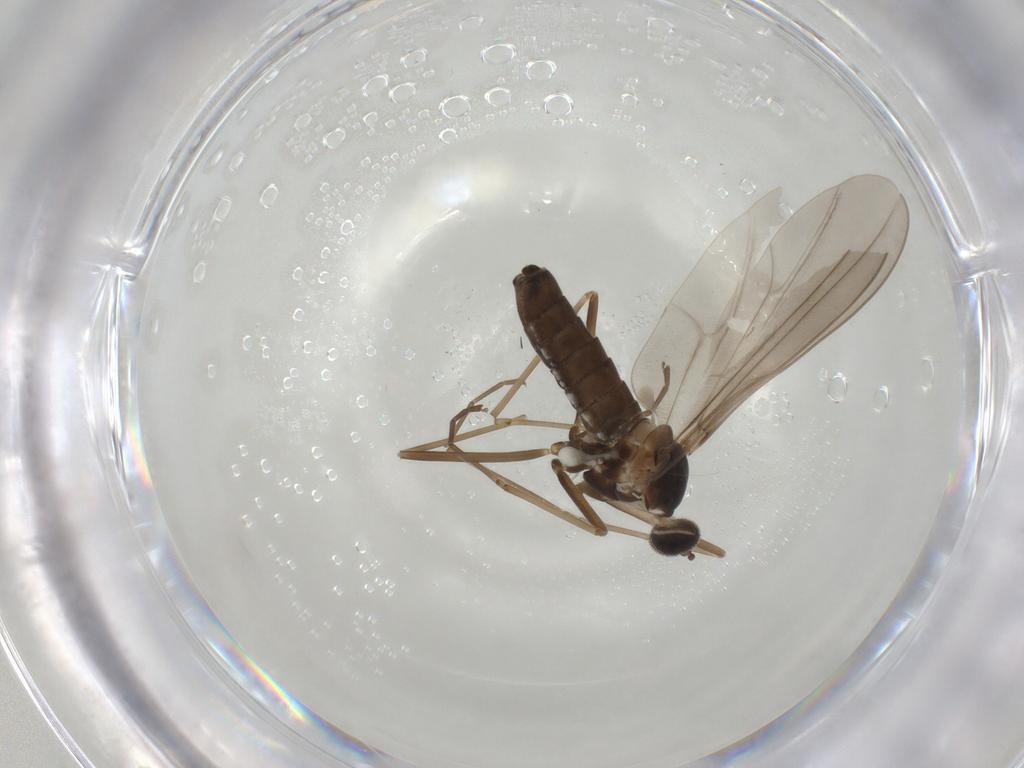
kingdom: Animalia
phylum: Arthropoda
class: Insecta
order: Diptera
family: Cecidomyiidae
